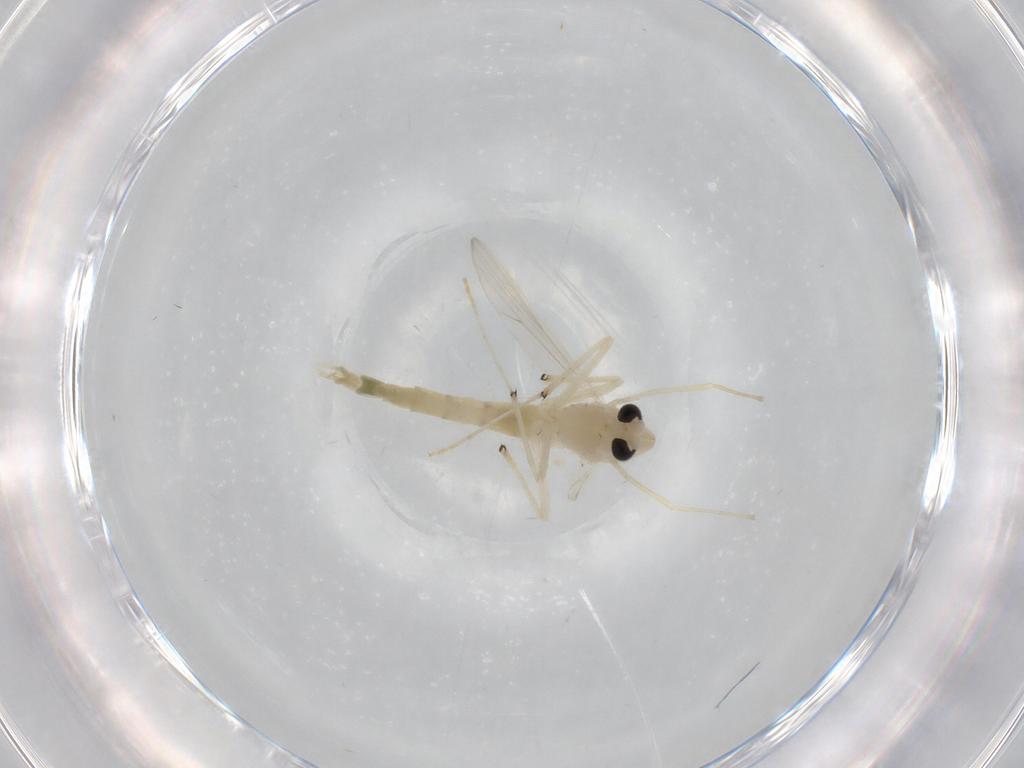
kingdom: Animalia
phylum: Arthropoda
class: Insecta
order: Diptera
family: Chironomidae
